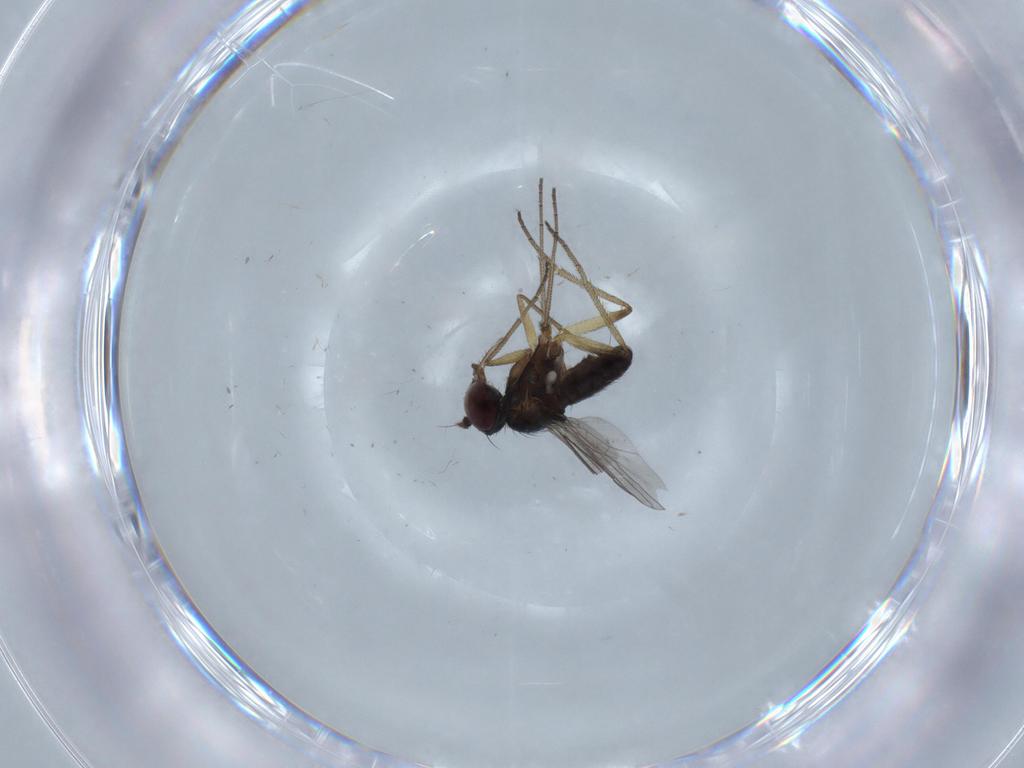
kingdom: Animalia
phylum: Arthropoda
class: Insecta
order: Diptera
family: Dolichopodidae
